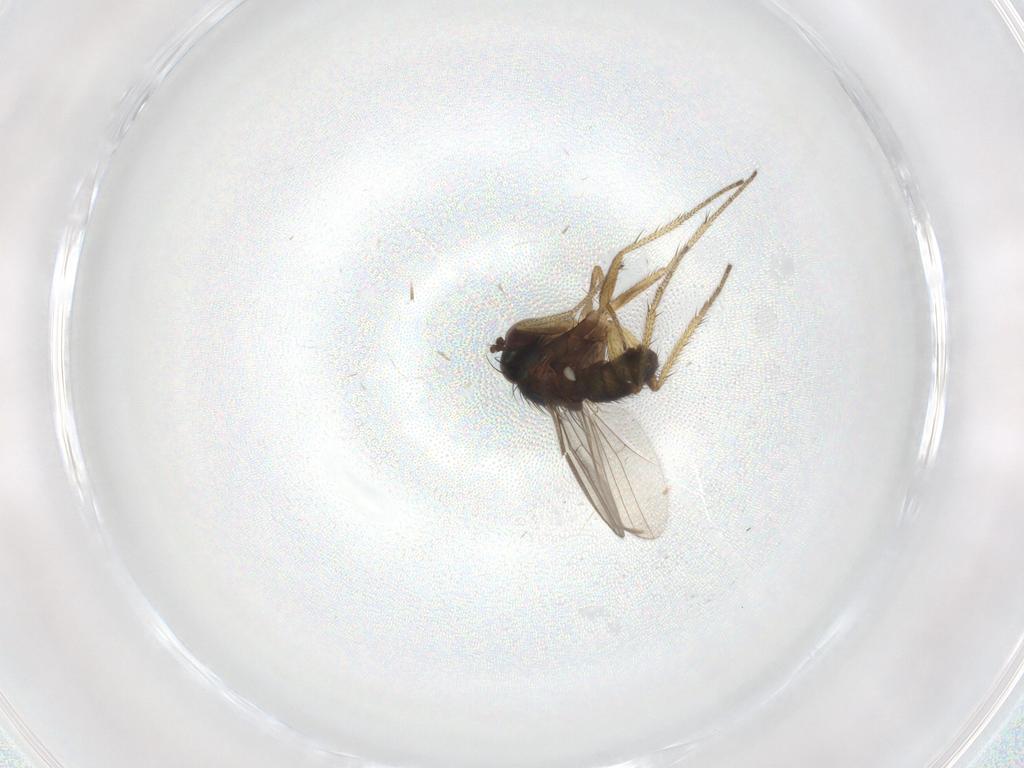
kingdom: Animalia
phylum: Arthropoda
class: Insecta
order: Diptera
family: Dolichopodidae
